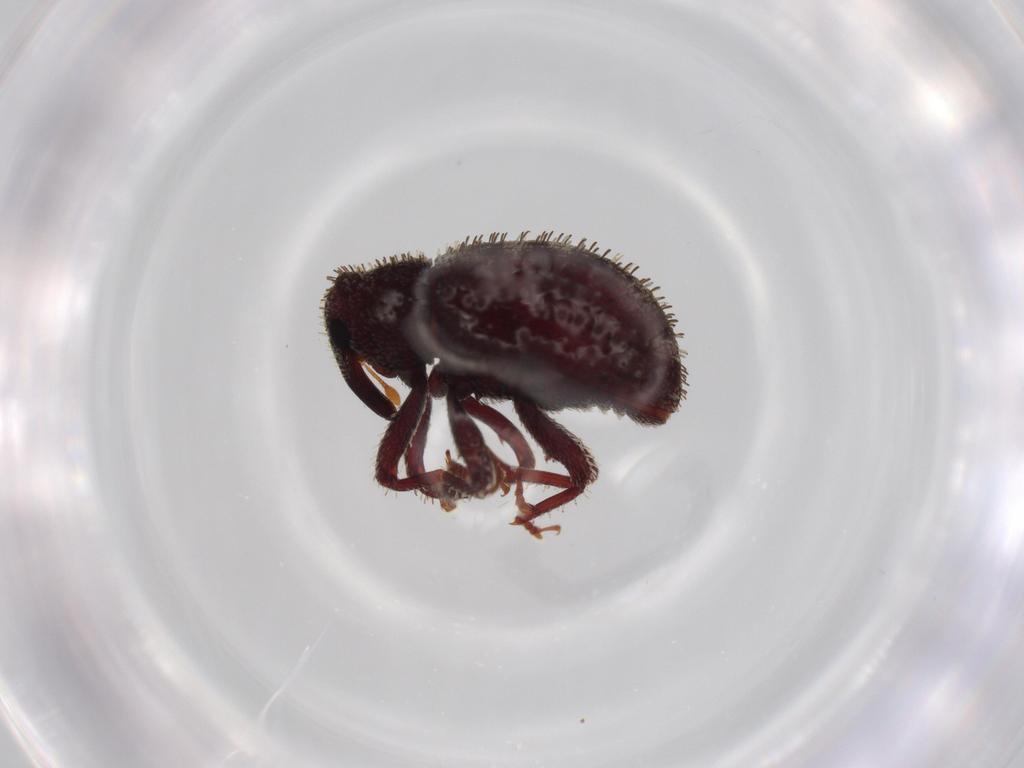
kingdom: Animalia
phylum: Arthropoda
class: Insecta
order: Coleoptera
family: Curculionidae
